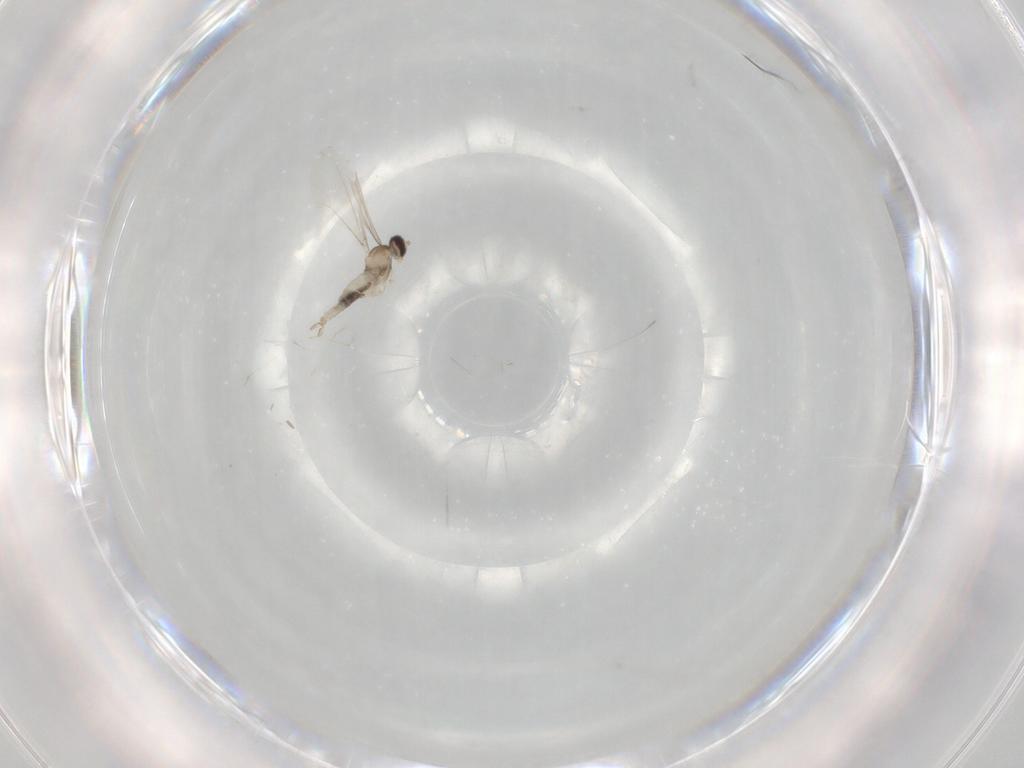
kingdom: Animalia
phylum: Arthropoda
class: Insecta
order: Diptera
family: Cecidomyiidae
